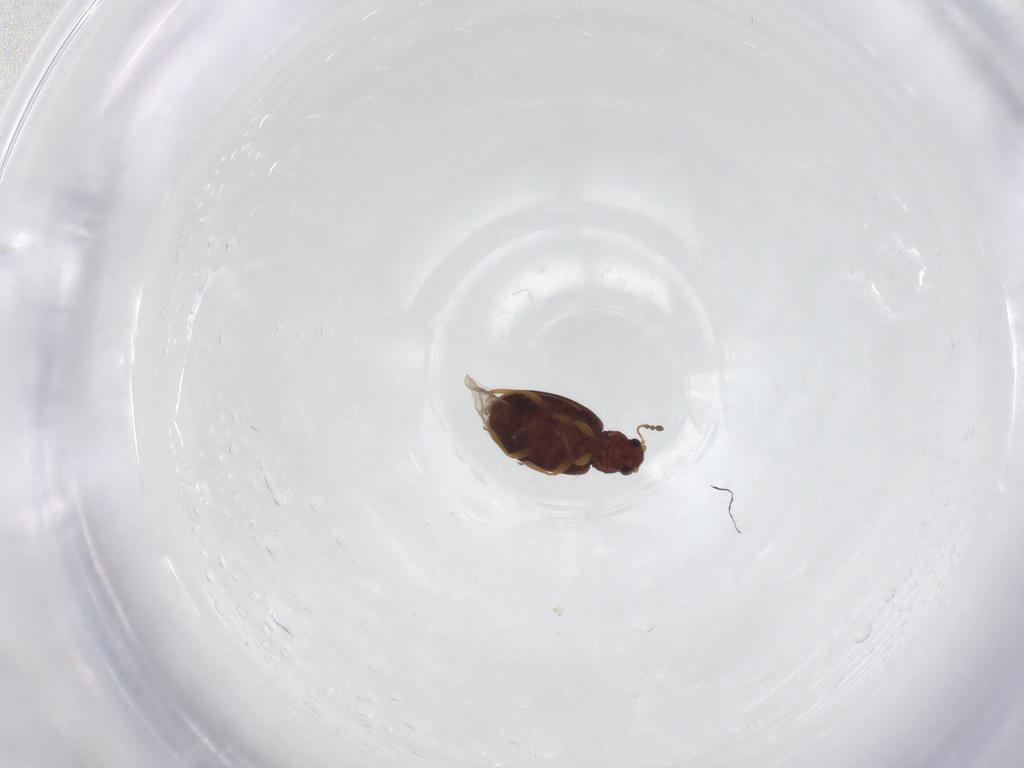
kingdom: Animalia
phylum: Arthropoda
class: Insecta
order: Coleoptera
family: Latridiidae
